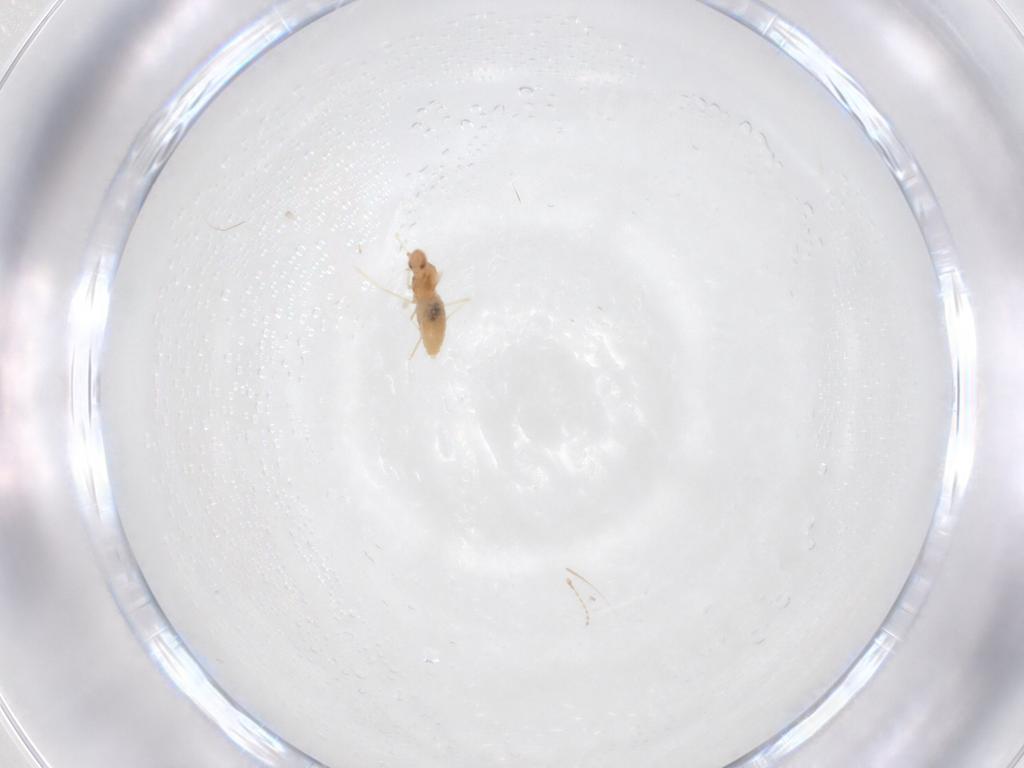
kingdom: Animalia
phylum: Arthropoda
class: Insecta
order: Diptera
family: Cecidomyiidae
